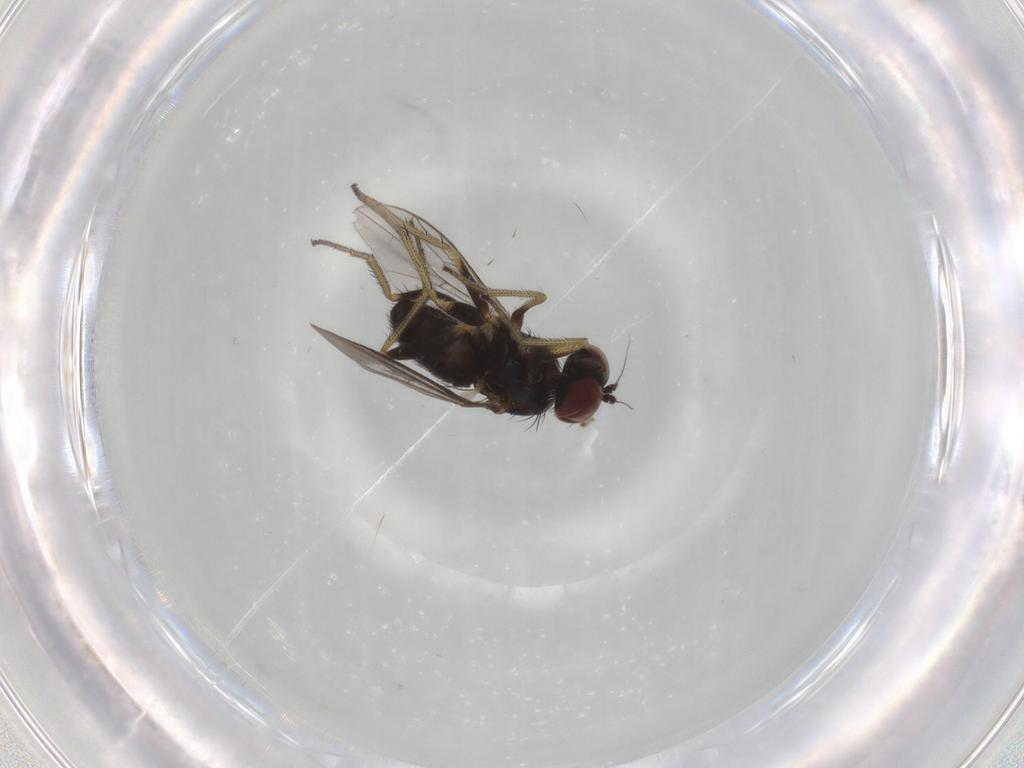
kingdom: Animalia
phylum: Arthropoda
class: Insecta
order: Diptera
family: Dolichopodidae
